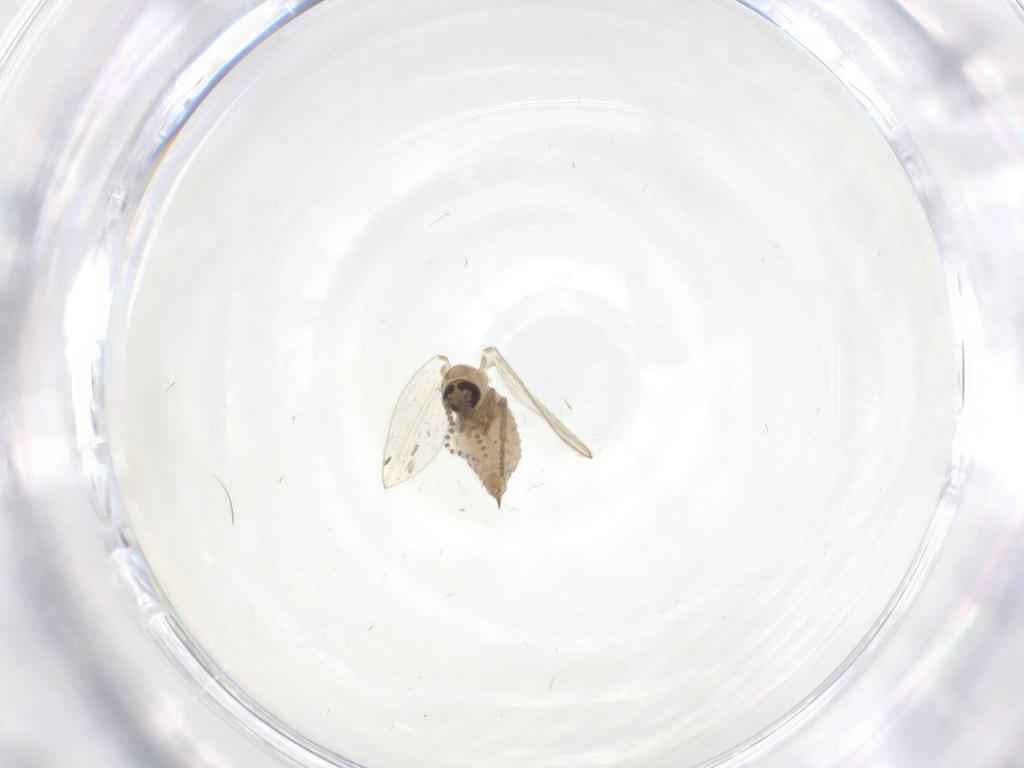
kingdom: Animalia
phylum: Arthropoda
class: Insecta
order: Diptera
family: Psychodidae
